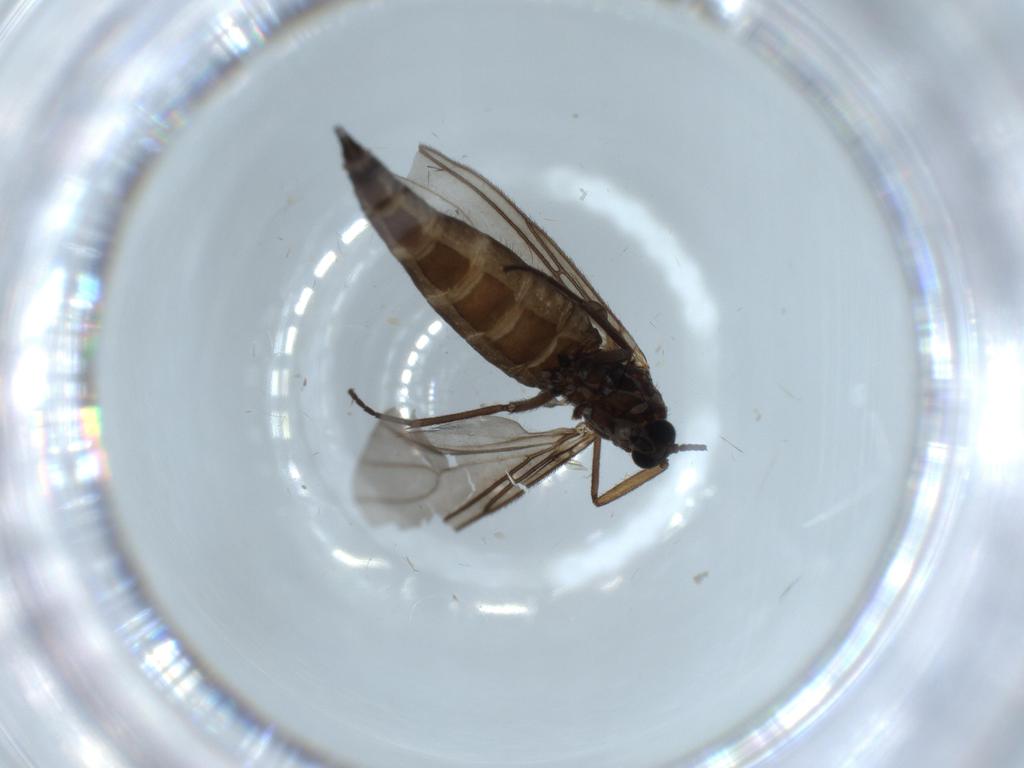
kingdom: Animalia
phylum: Arthropoda
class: Insecta
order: Diptera
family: Sciaridae
